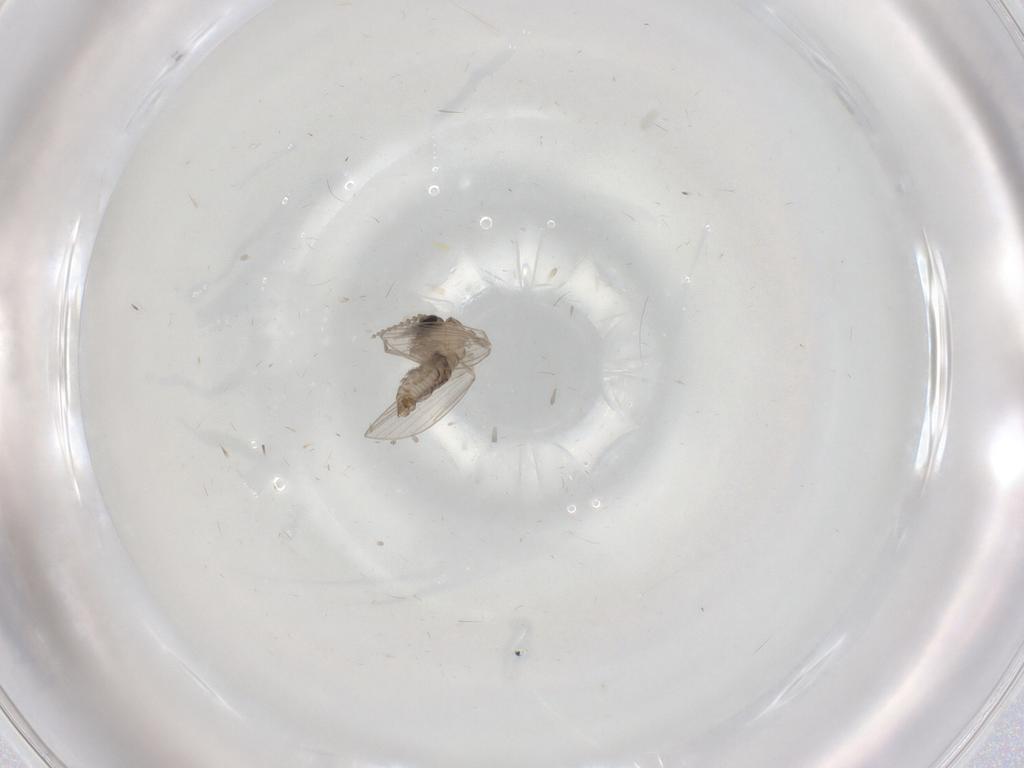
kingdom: Animalia
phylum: Arthropoda
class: Insecta
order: Diptera
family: Psychodidae
